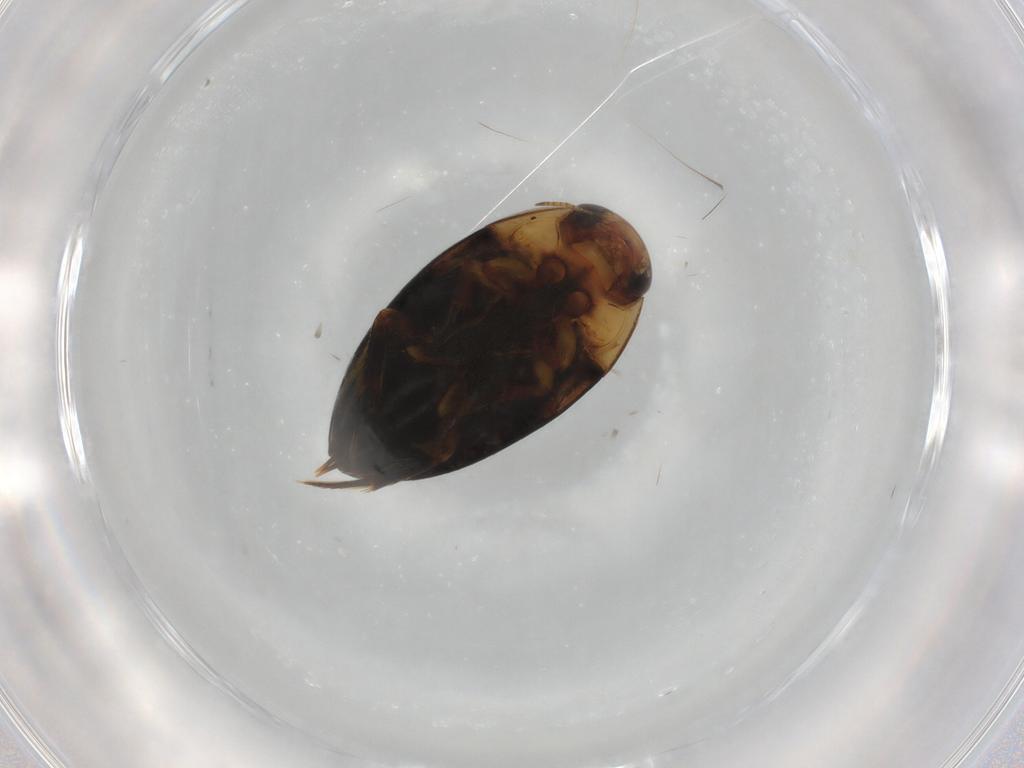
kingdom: Animalia
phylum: Arthropoda
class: Insecta
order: Coleoptera
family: Noteridae
